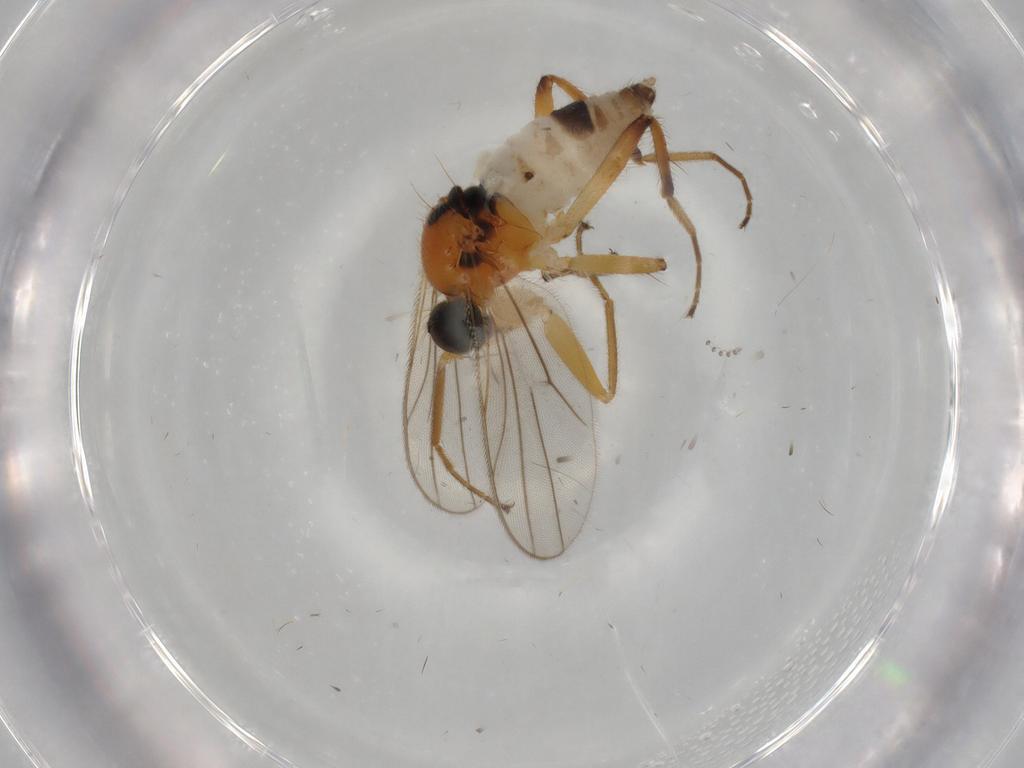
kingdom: Animalia
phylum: Arthropoda
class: Insecta
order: Diptera
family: Hybotidae
